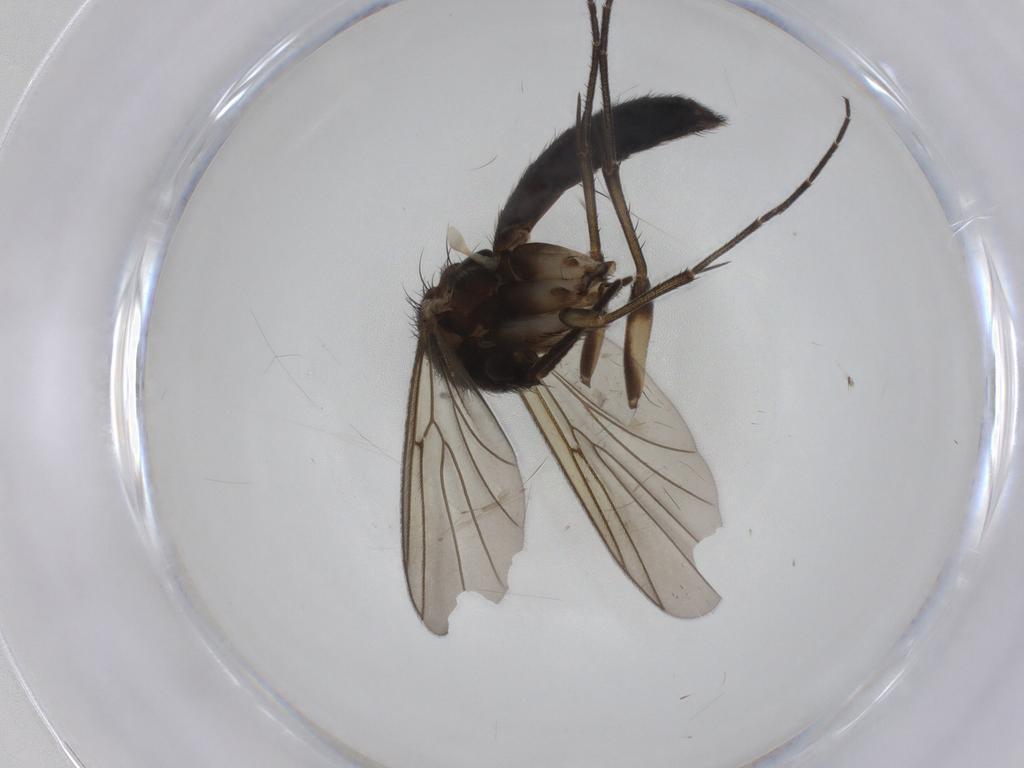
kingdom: Animalia
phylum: Arthropoda
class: Insecta
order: Diptera
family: Mycetophilidae
